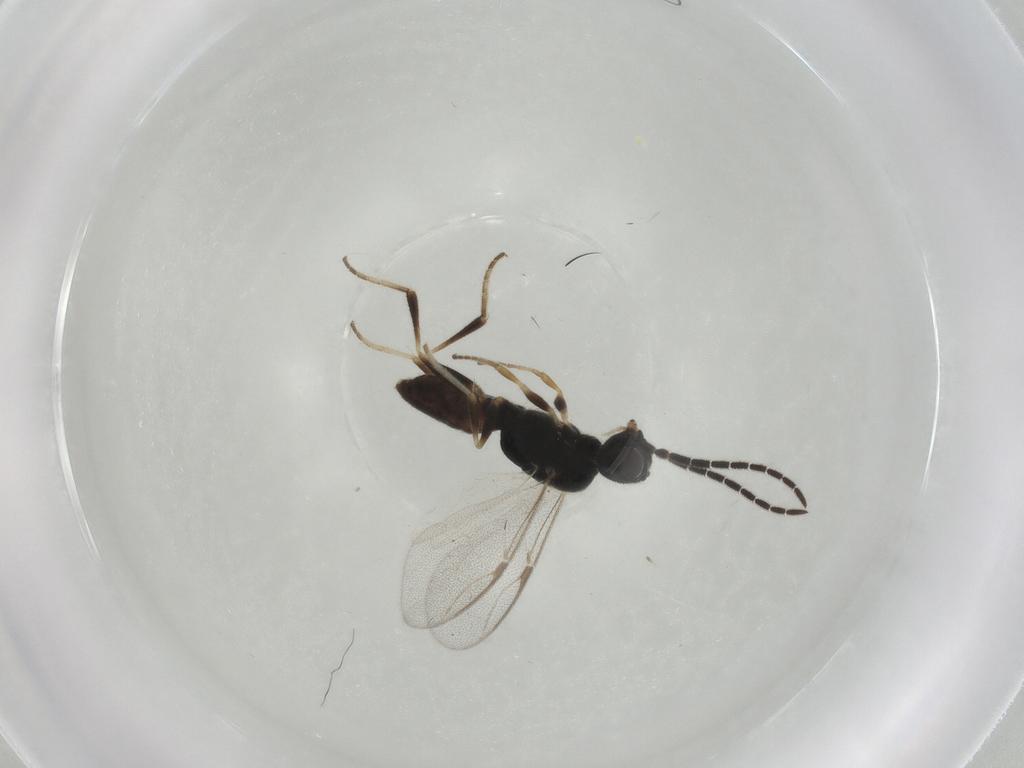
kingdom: Animalia
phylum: Arthropoda
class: Insecta
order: Hymenoptera
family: Dryinidae
